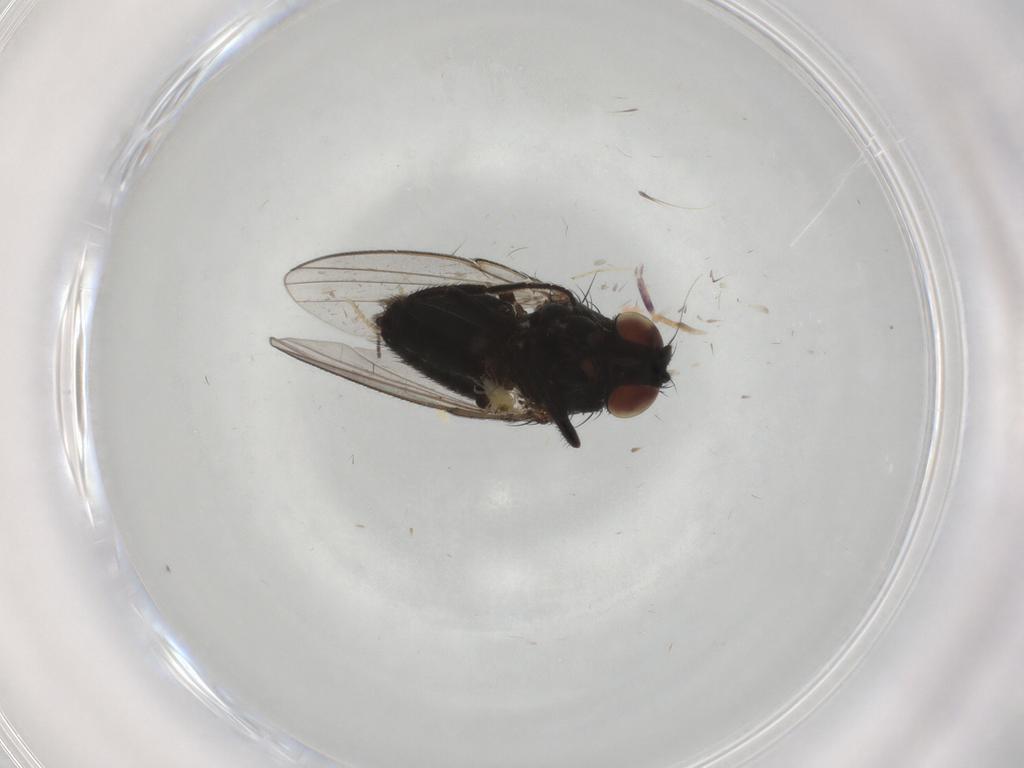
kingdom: Animalia
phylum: Arthropoda
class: Insecta
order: Diptera
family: Milichiidae
